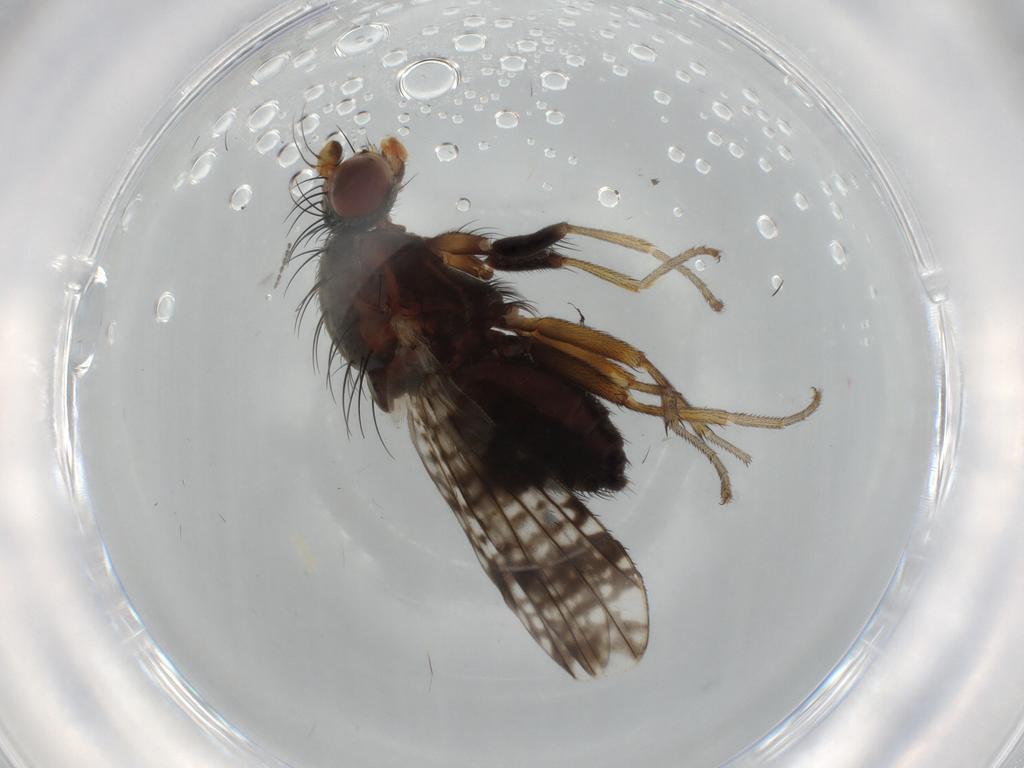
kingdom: Animalia
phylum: Arthropoda
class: Insecta
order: Diptera
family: Tephritidae
